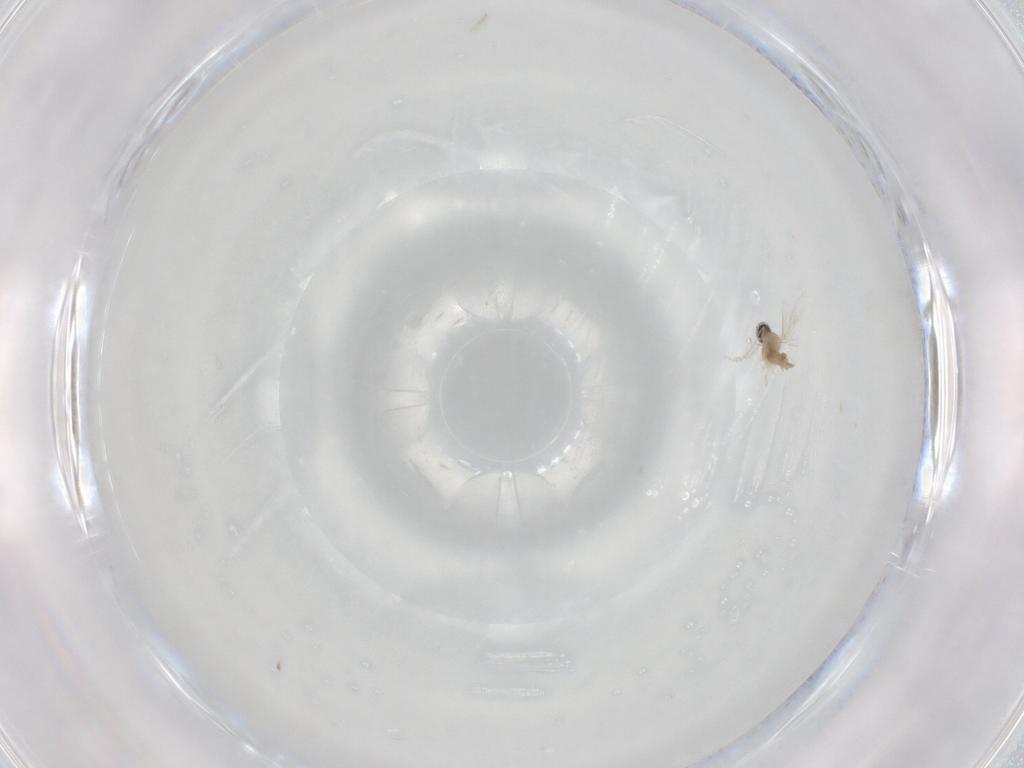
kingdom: Animalia
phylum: Arthropoda
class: Insecta
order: Diptera
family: Cecidomyiidae
